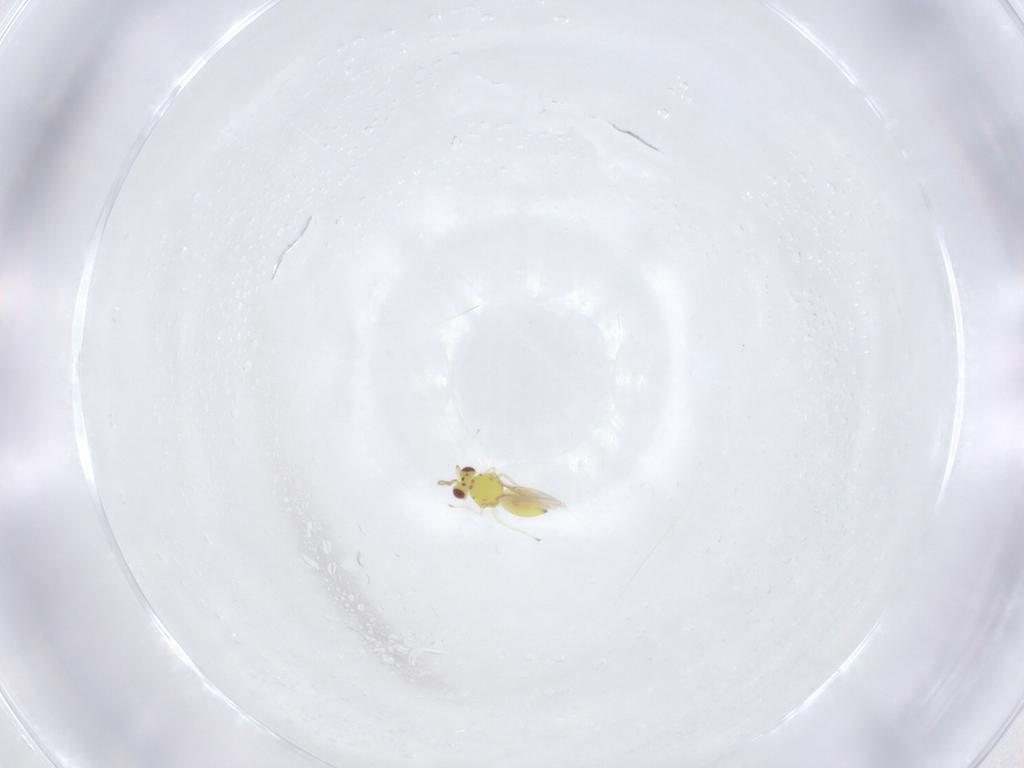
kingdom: Animalia
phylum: Arthropoda
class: Insecta
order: Hymenoptera
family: Eulophidae
